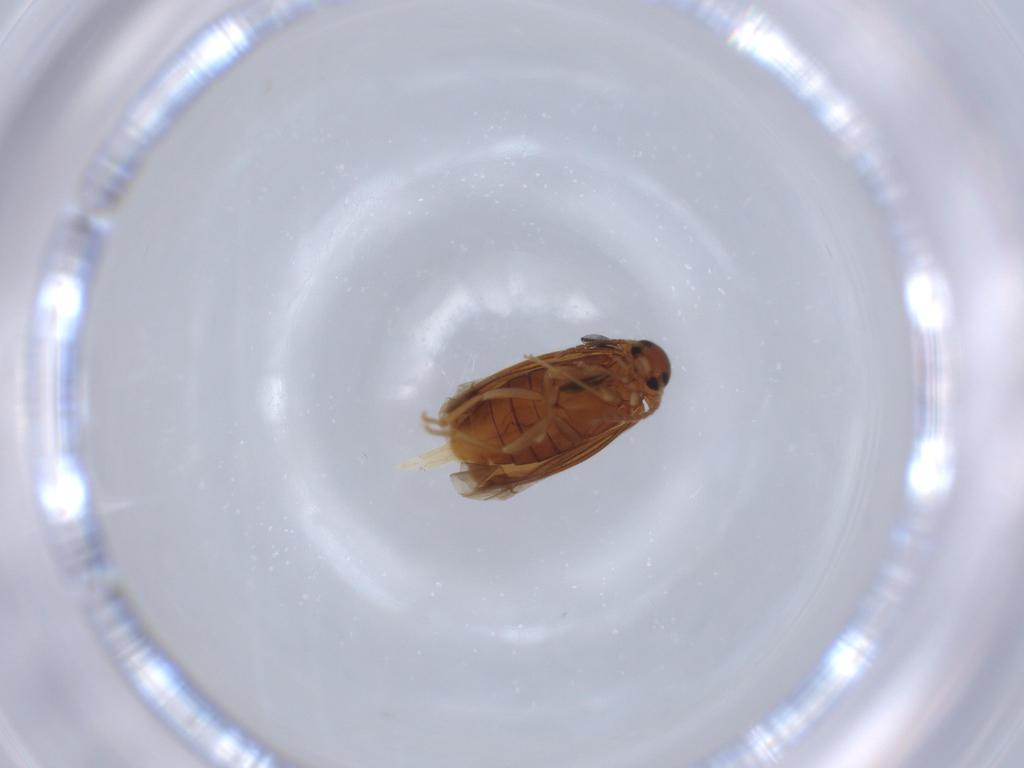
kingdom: Animalia
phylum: Arthropoda
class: Insecta
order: Coleoptera
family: Scraptiidae
